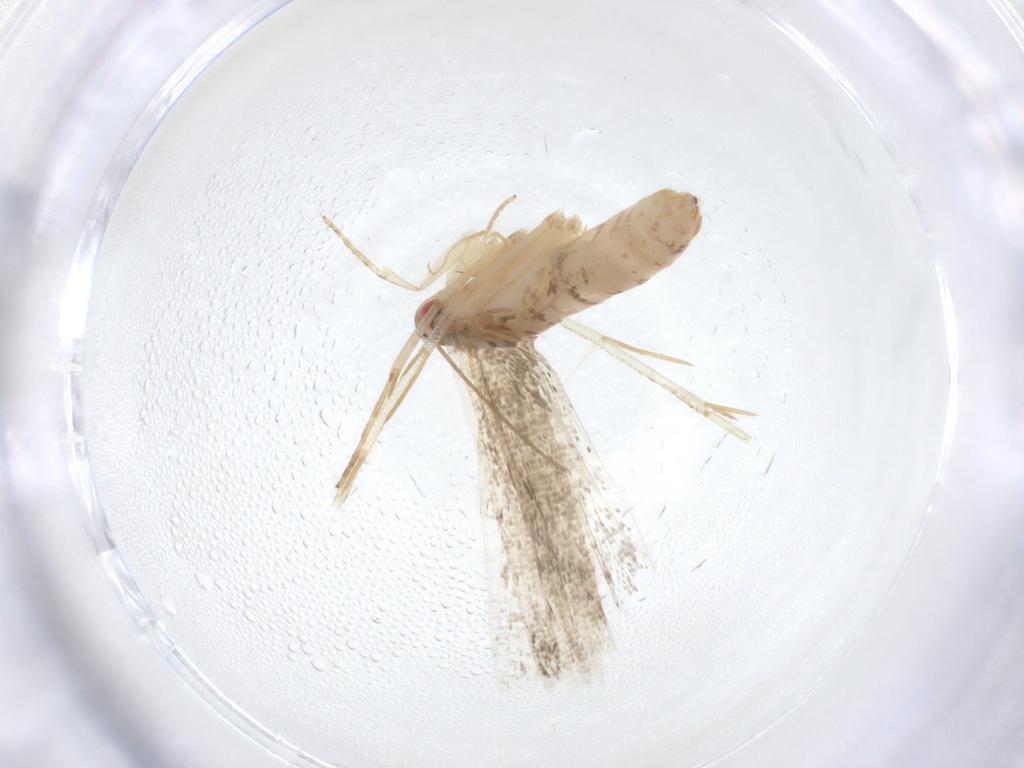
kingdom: Animalia
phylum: Arthropoda
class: Insecta
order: Lepidoptera
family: Crambidae
